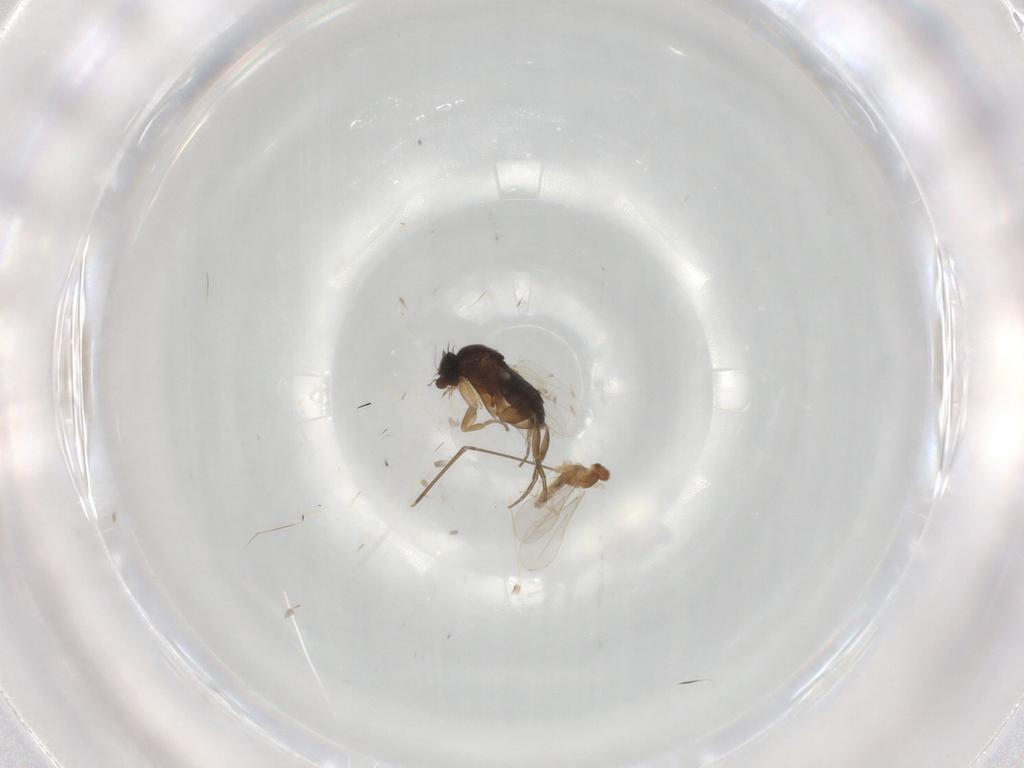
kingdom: Animalia
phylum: Arthropoda
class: Insecta
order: Diptera
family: Phoridae
